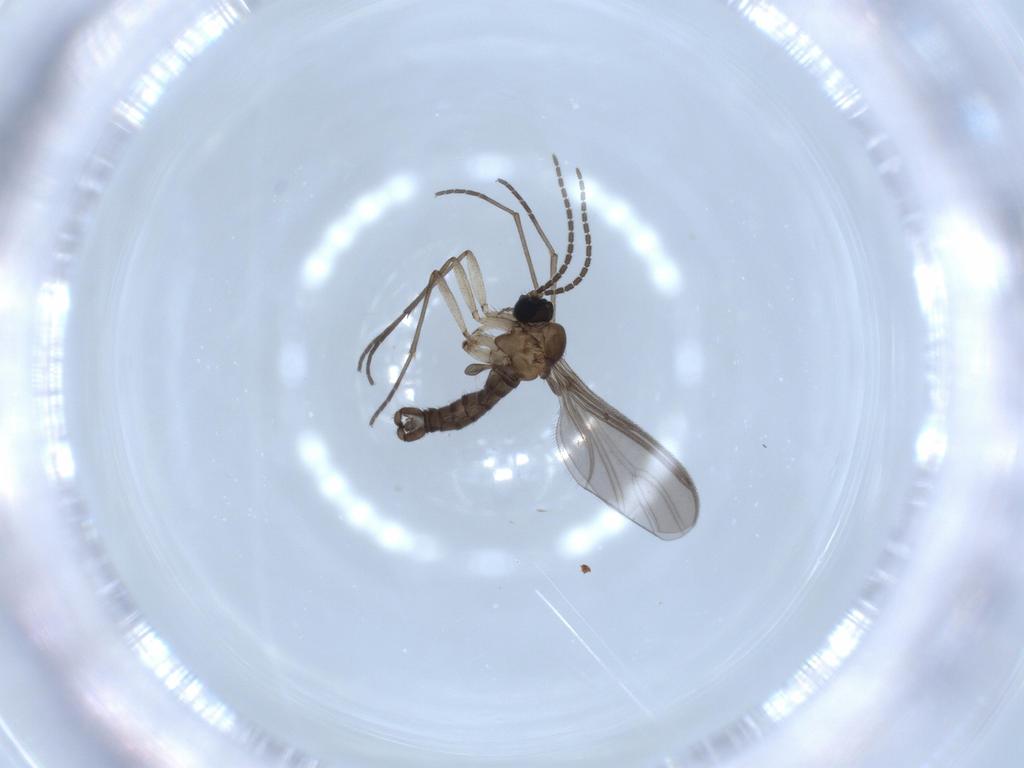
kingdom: Animalia
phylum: Arthropoda
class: Insecta
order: Diptera
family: Sciaridae
